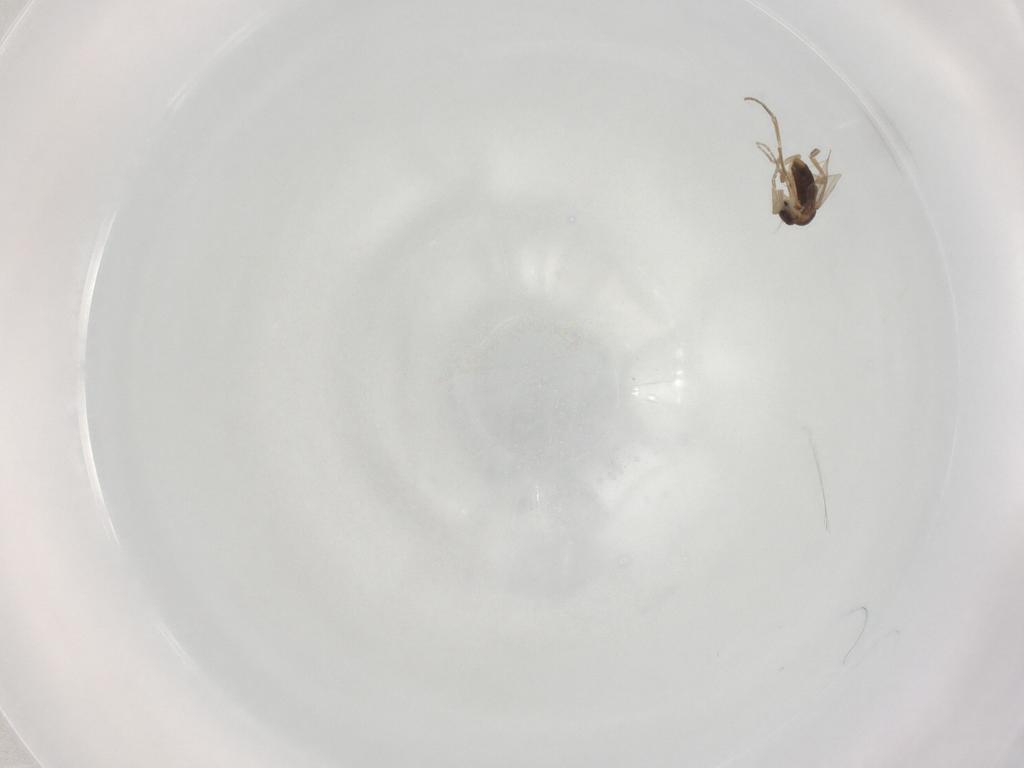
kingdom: Animalia
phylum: Arthropoda
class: Insecta
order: Diptera
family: Phoridae
